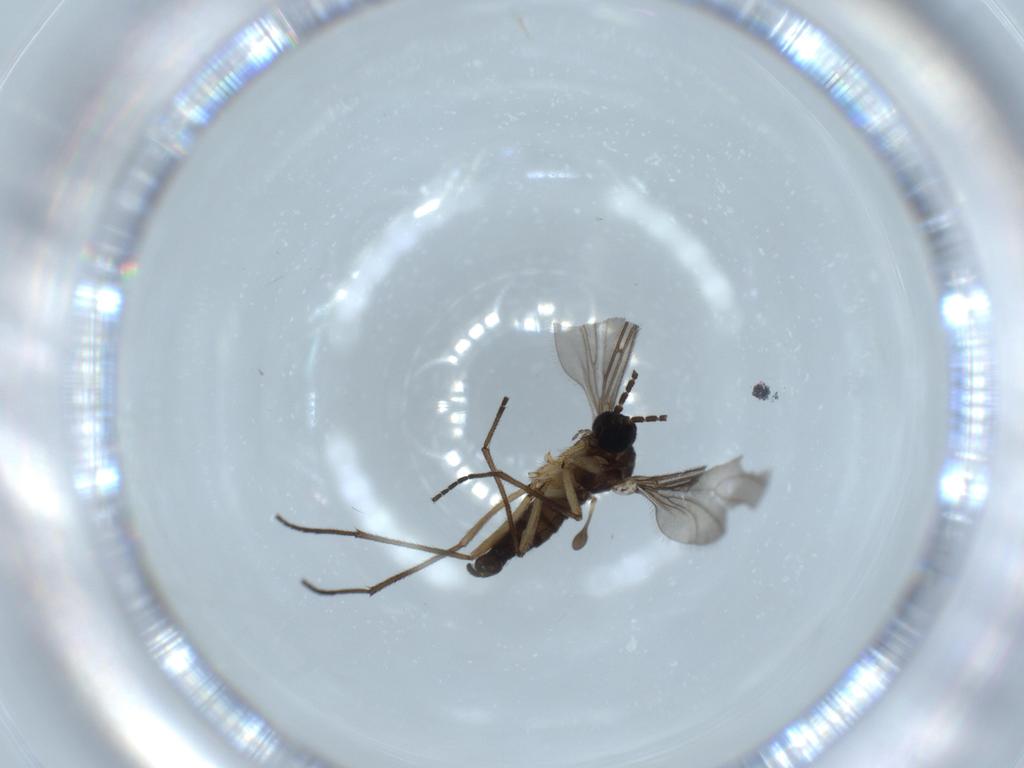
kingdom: Animalia
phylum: Arthropoda
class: Insecta
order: Diptera
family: Sciaridae
